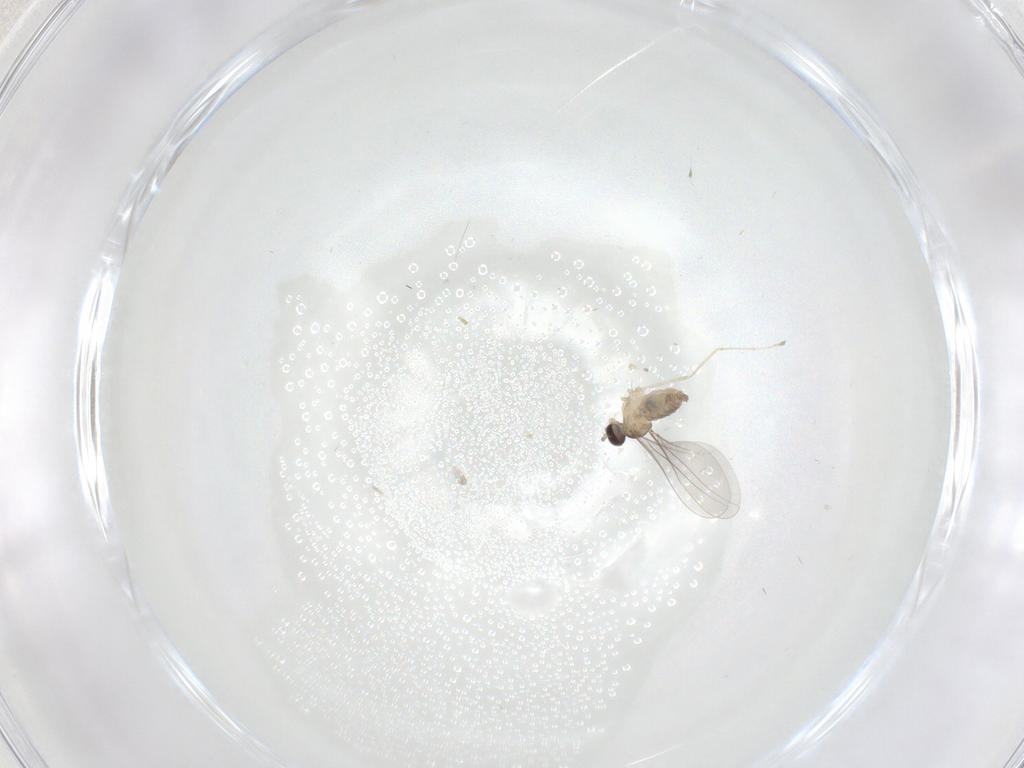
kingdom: Animalia
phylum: Arthropoda
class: Insecta
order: Diptera
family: Cecidomyiidae
